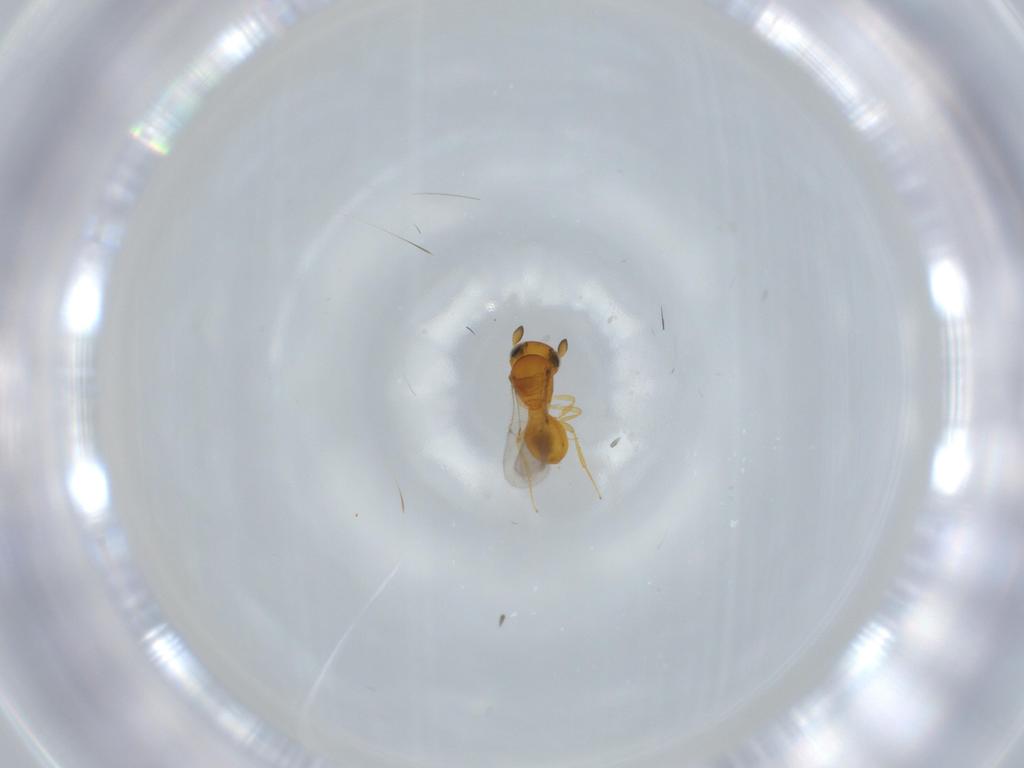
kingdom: Animalia
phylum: Arthropoda
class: Insecta
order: Hymenoptera
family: Scelionidae
